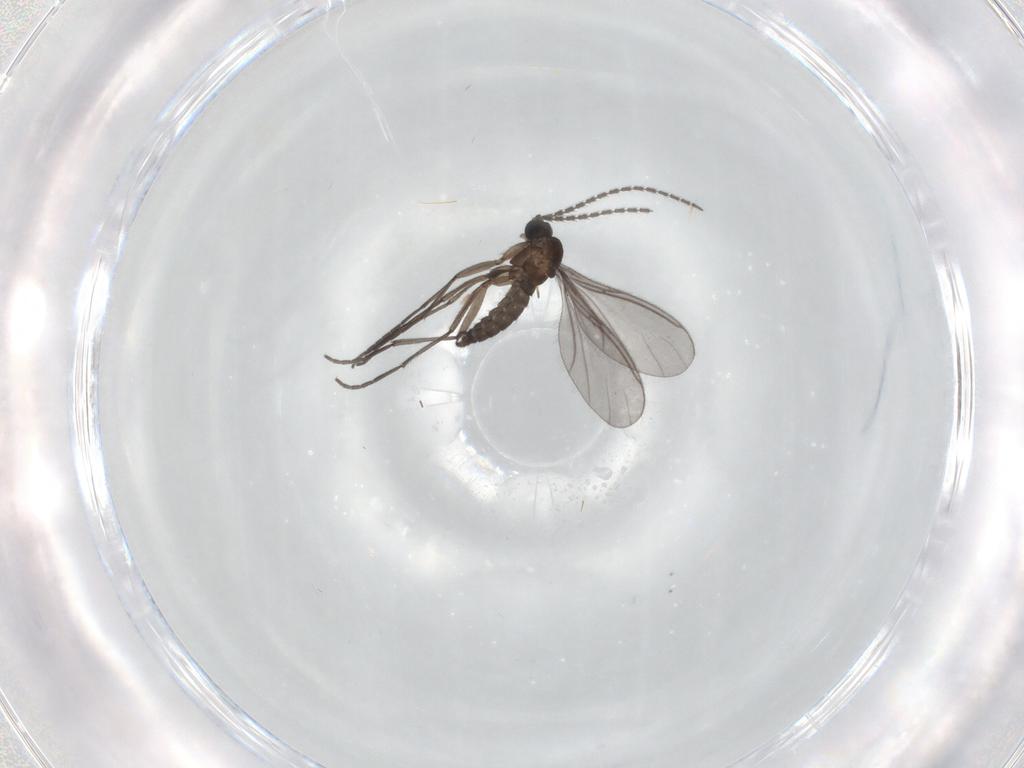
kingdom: Animalia
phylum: Arthropoda
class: Insecta
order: Diptera
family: Sciaridae
